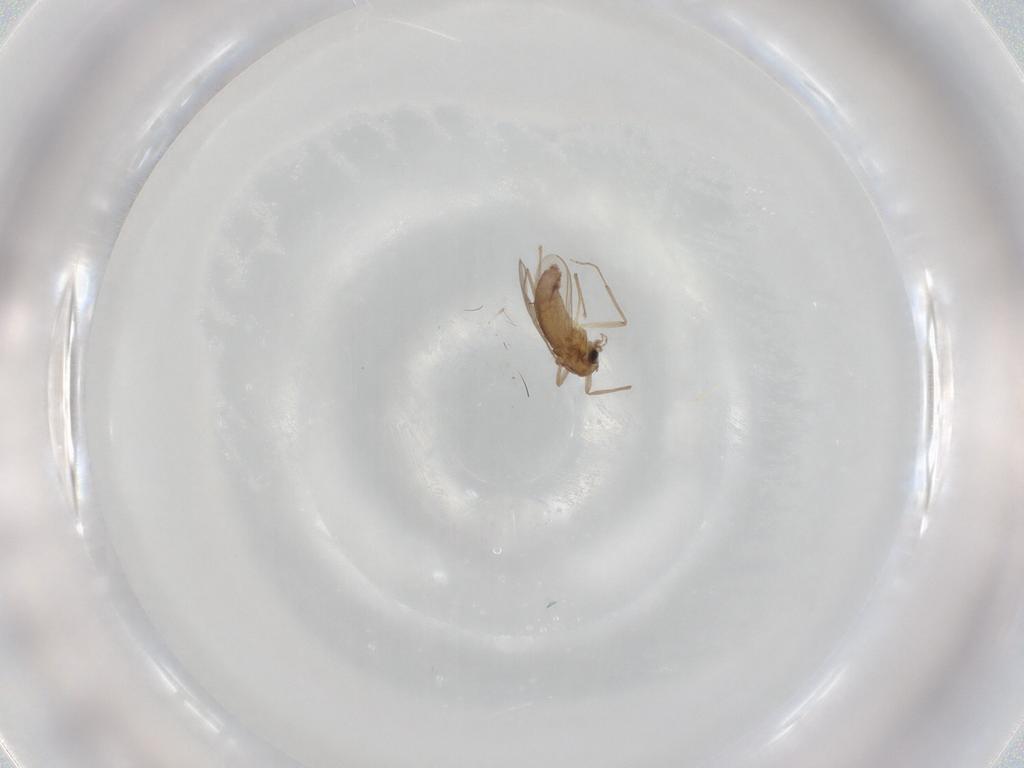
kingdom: Animalia
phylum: Arthropoda
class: Insecta
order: Diptera
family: Chironomidae
